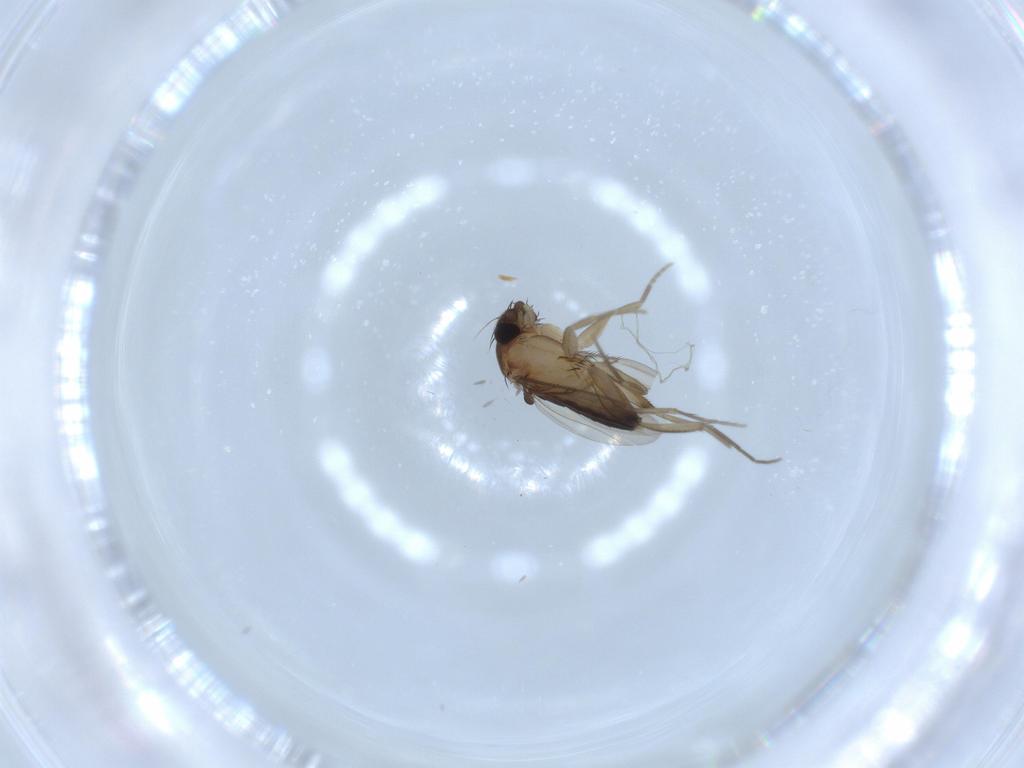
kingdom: Animalia
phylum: Arthropoda
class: Insecta
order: Diptera
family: Phoridae
